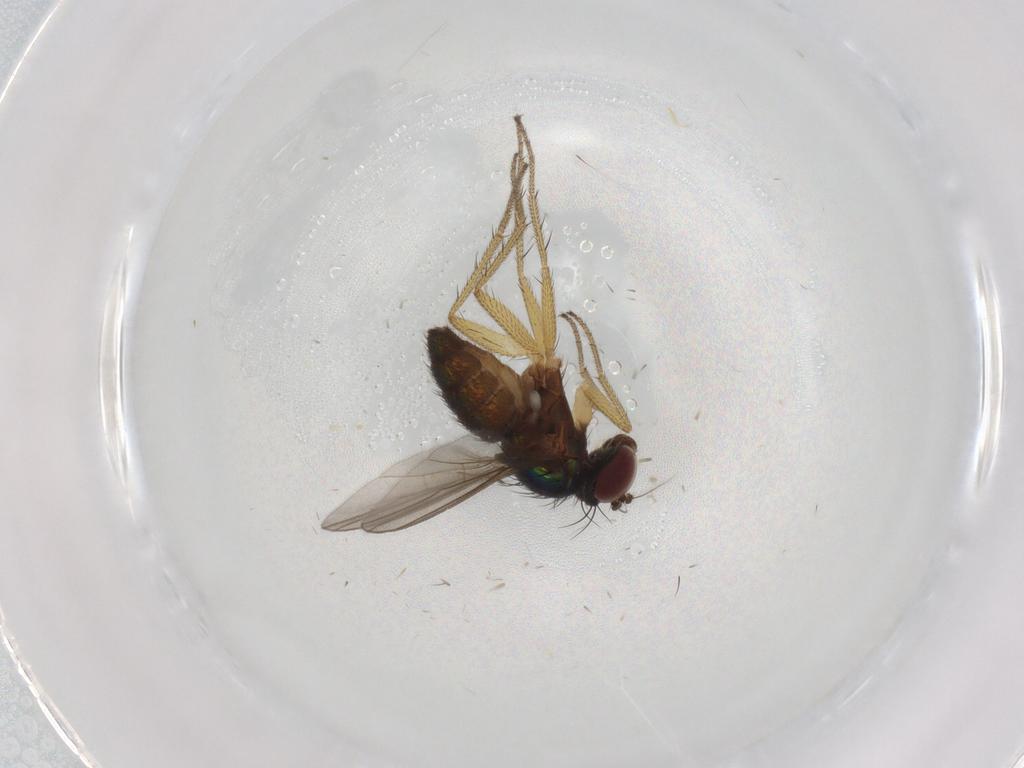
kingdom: Animalia
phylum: Arthropoda
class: Insecta
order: Diptera
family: Chironomidae
